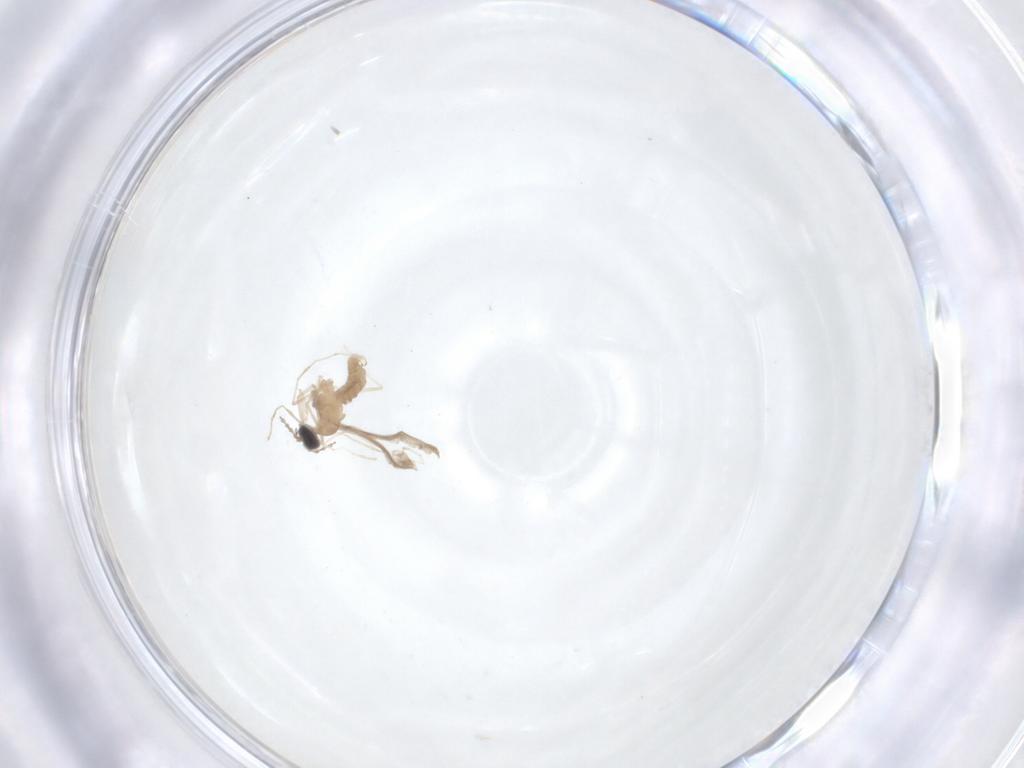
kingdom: Animalia
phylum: Arthropoda
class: Insecta
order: Diptera
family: Cecidomyiidae
